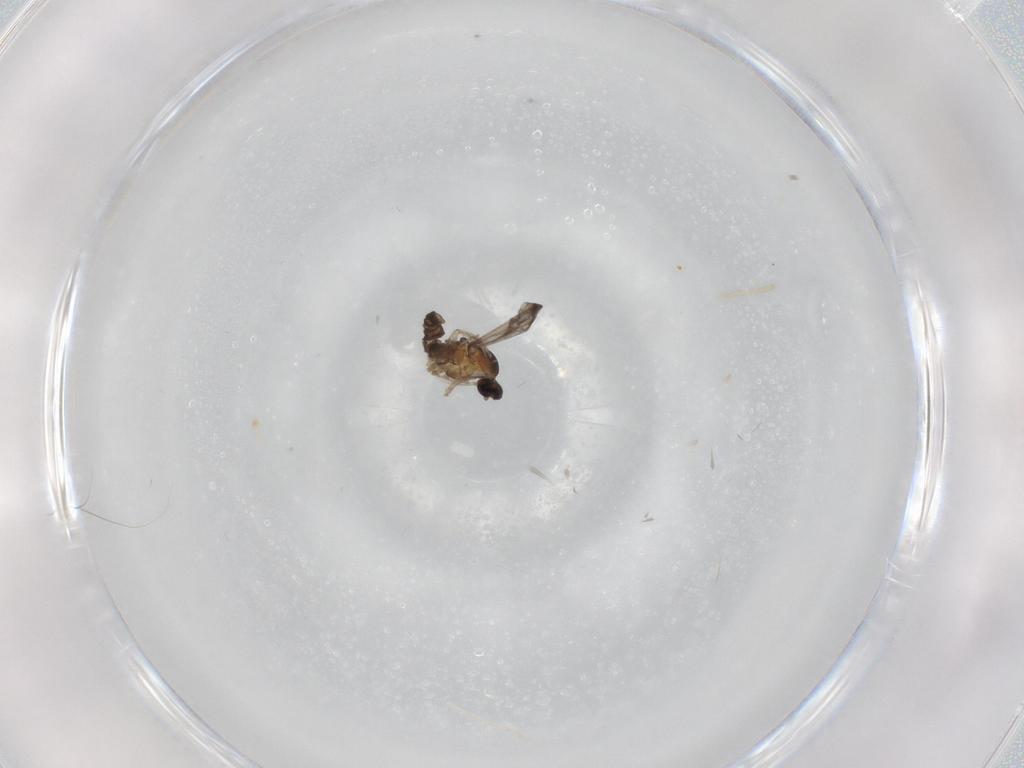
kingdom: Animalia
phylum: Arthropoda
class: Insecta
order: Diptera
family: Cecidomyiidae
